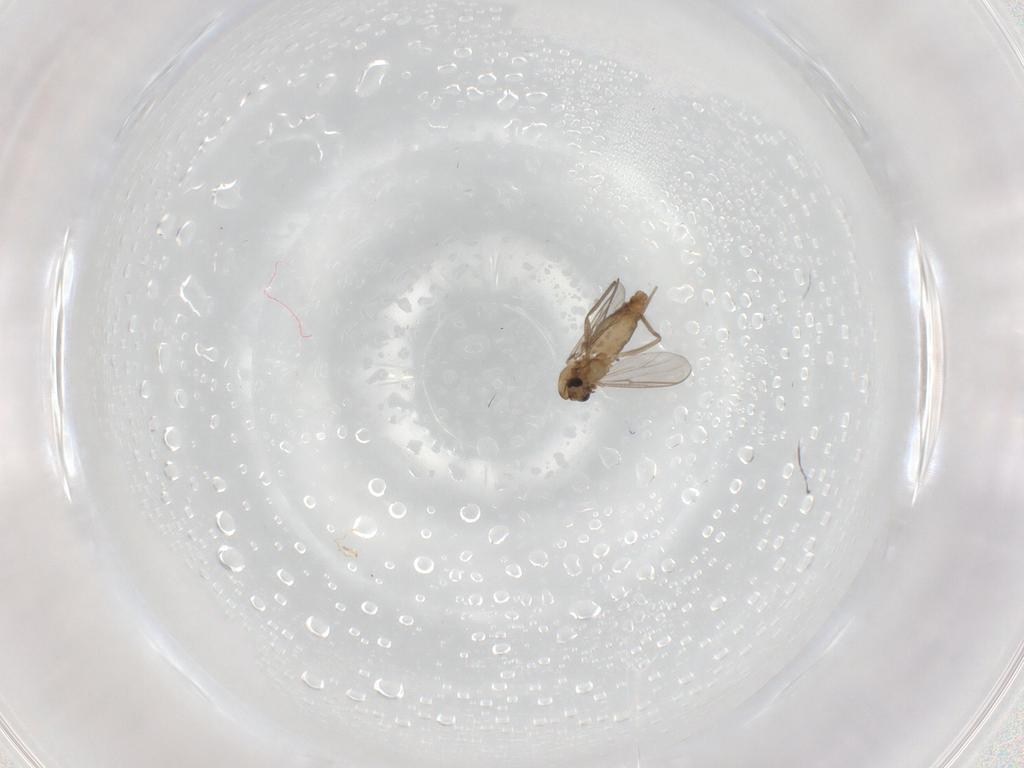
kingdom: Animalia
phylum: Arthropoda
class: Insecta
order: Diptera
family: Chironomidae
